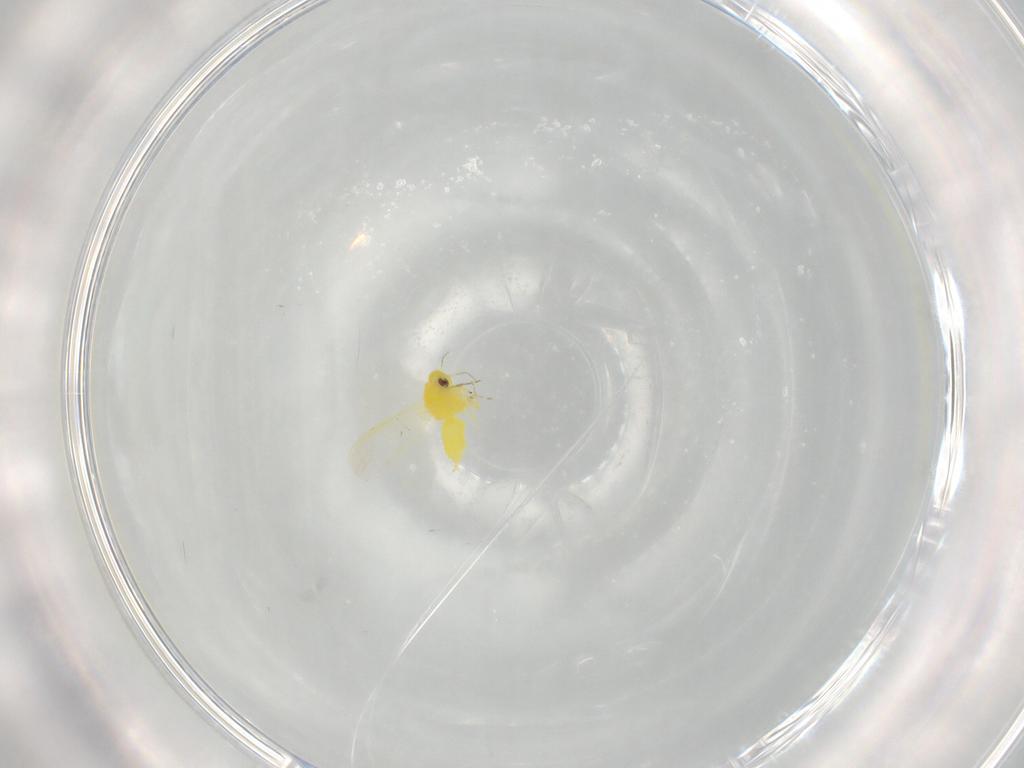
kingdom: Animalia
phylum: Arthropoda
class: Insecta
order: Hemiptera
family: Cicadellidae
